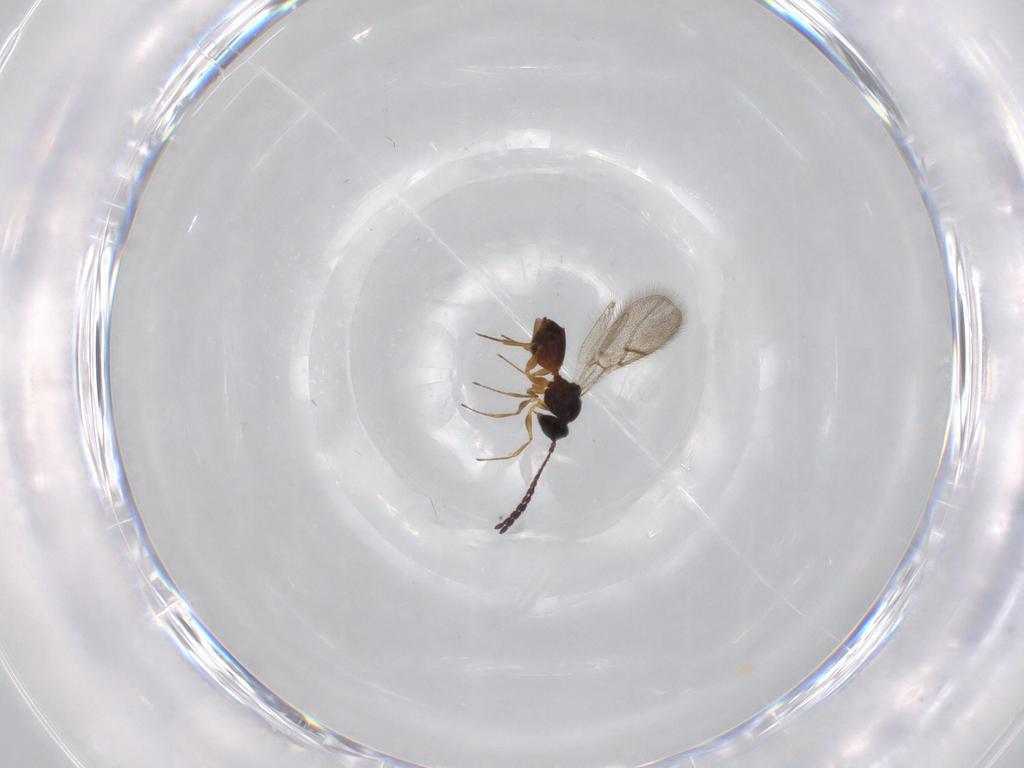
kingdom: Animalia
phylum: Arthropoda
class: Insecta
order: Hymenoptera
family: Figitidae
